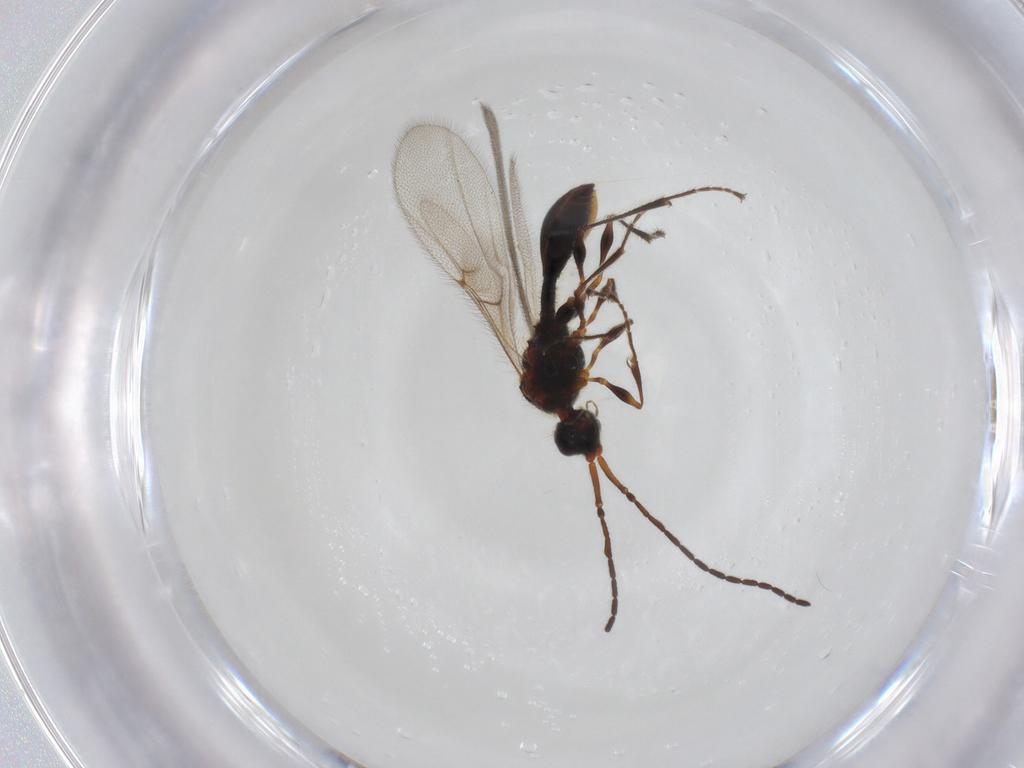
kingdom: Animalia
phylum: Arthropoda
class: Insecta
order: Hymenoptera
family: Diapriidae
